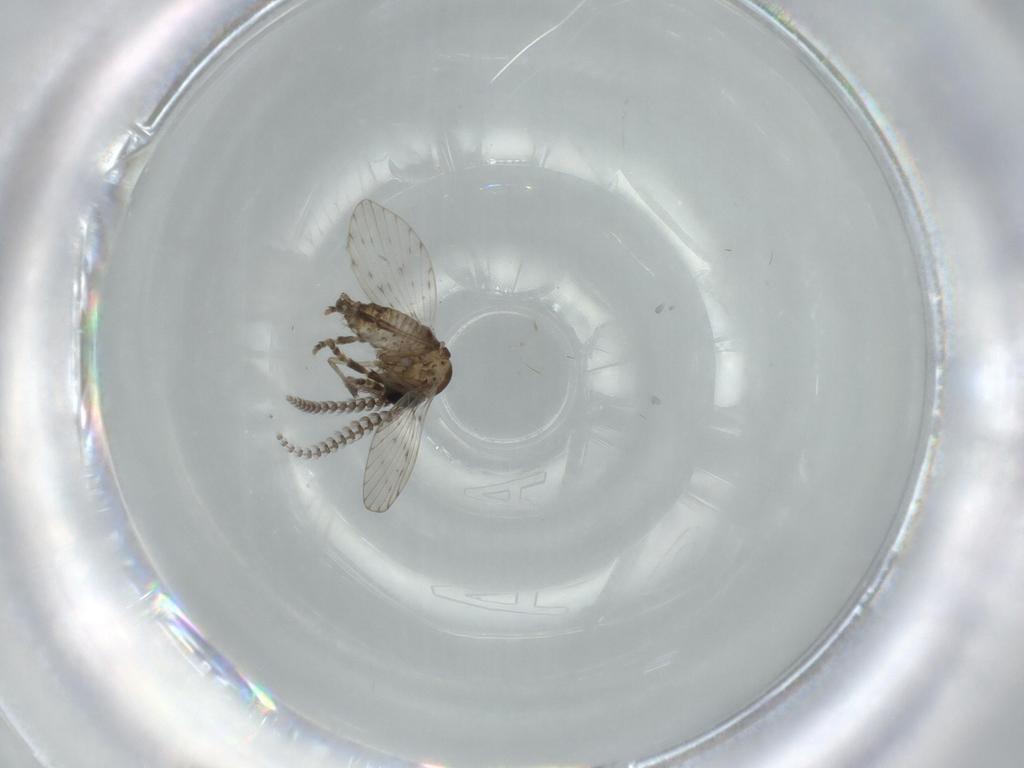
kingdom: Animalia
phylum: Arthropoda
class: Insecta
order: Diptera
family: Psychodidae
